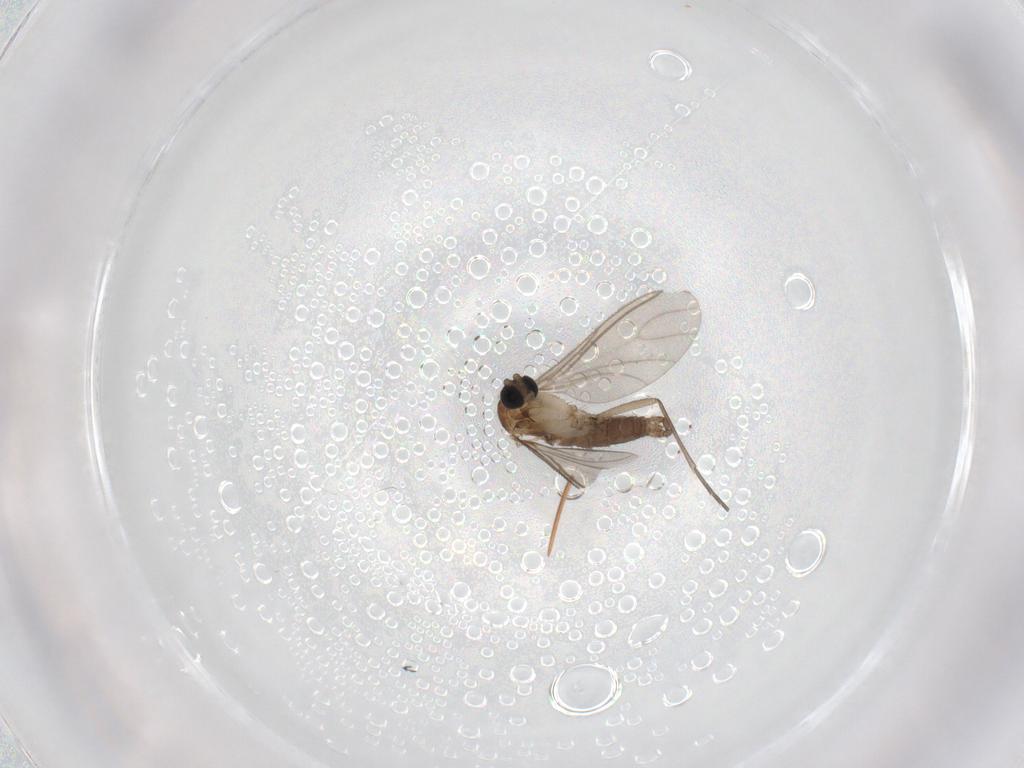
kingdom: Animalia
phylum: Arthropoda
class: Insecta
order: Diptera
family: Sciaridae
